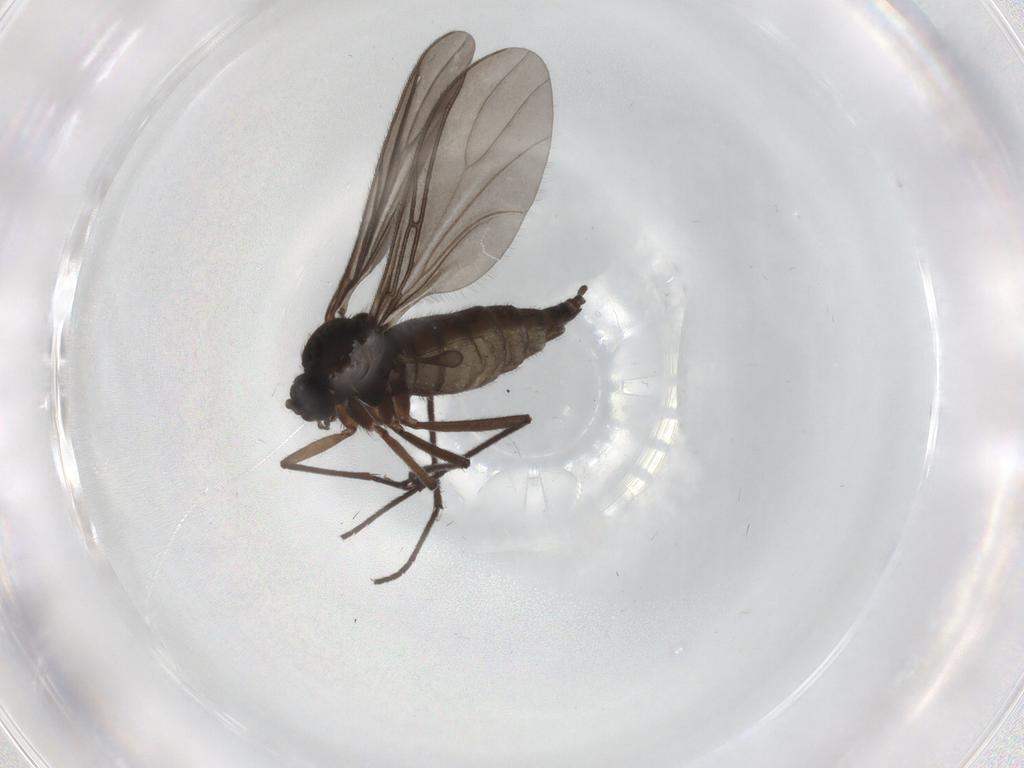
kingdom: Animalia
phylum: Arthropoda
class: Insecta
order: Diptera
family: Sciaridae
